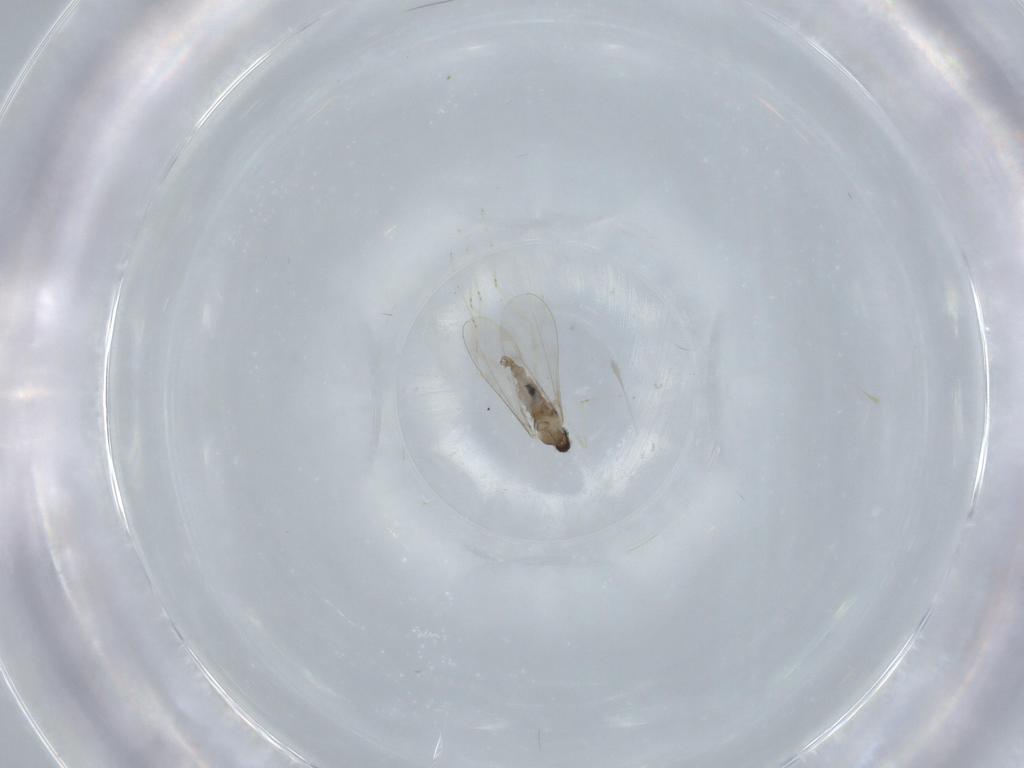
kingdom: Animalia
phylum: Arthropoda
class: Insecta
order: Diptera
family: Cecidomyiidae
